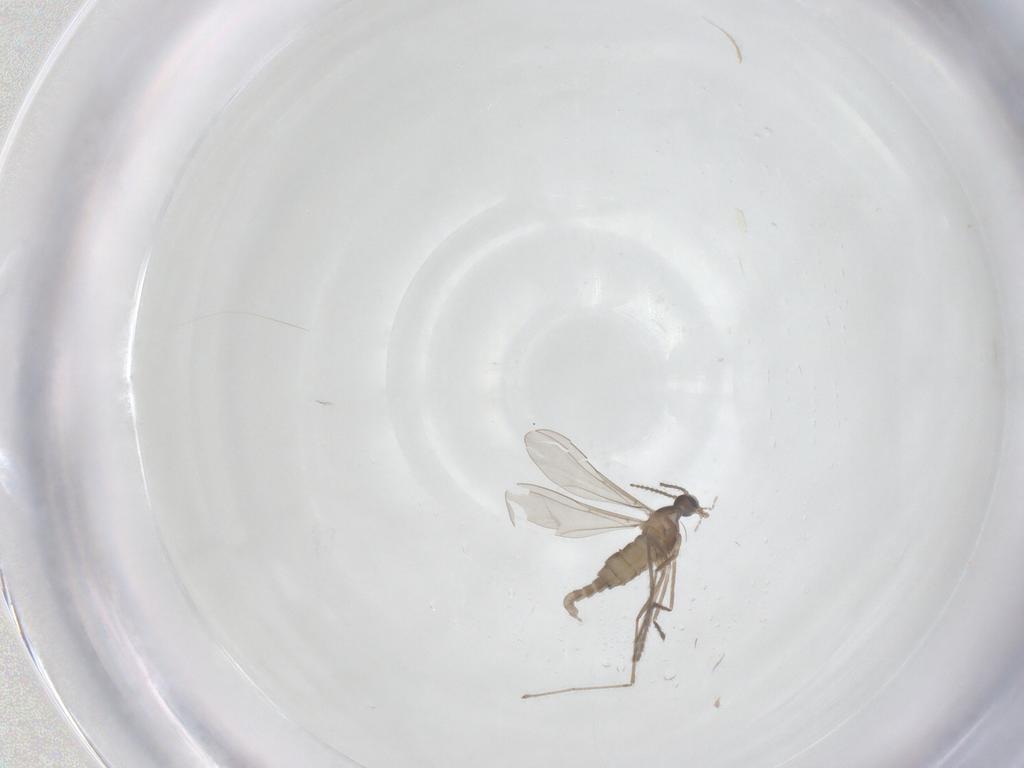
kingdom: Animalia
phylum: Arthropoda
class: Insecta
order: Diptera
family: Cecidomyiidae
